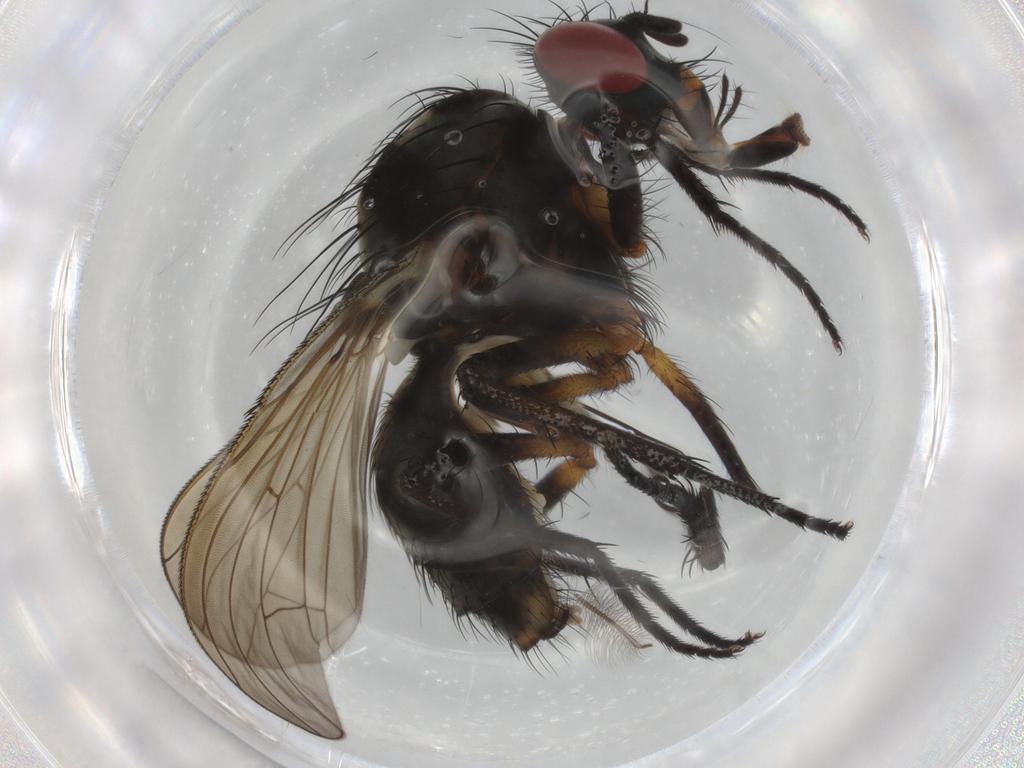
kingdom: Animalia
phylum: Arthropoda
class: Insecta
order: Diptera
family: Anthomyiidae
